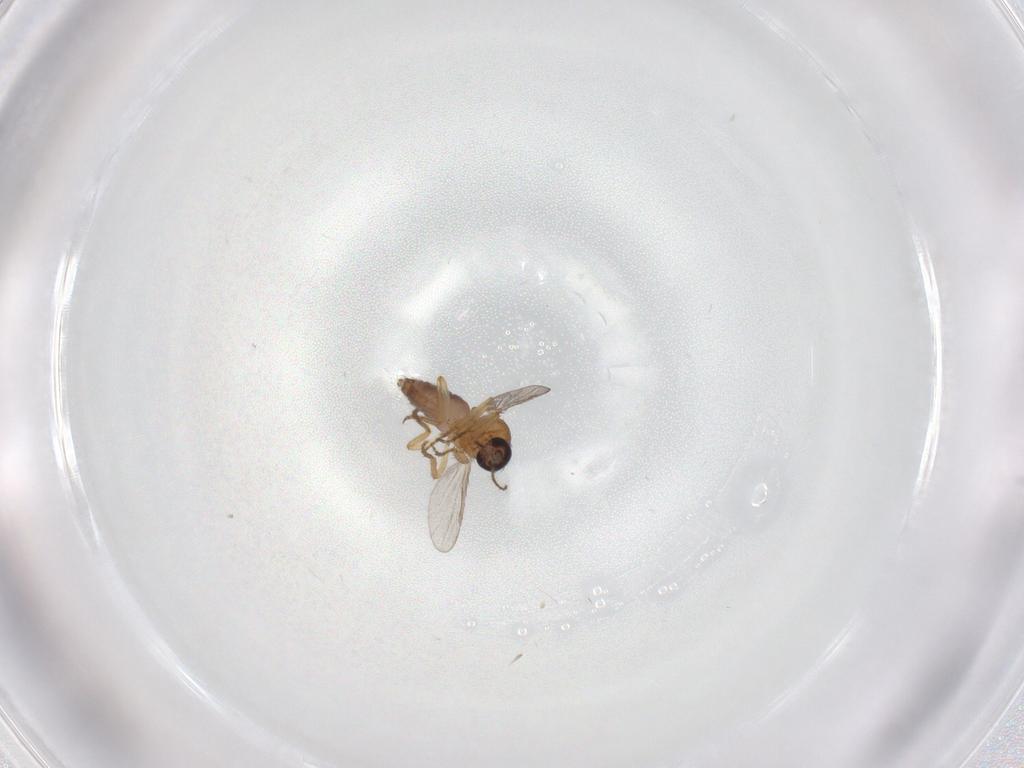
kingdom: Animalia
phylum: Arthropoda
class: Insecta
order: Diptera
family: Ceratopogonidae
